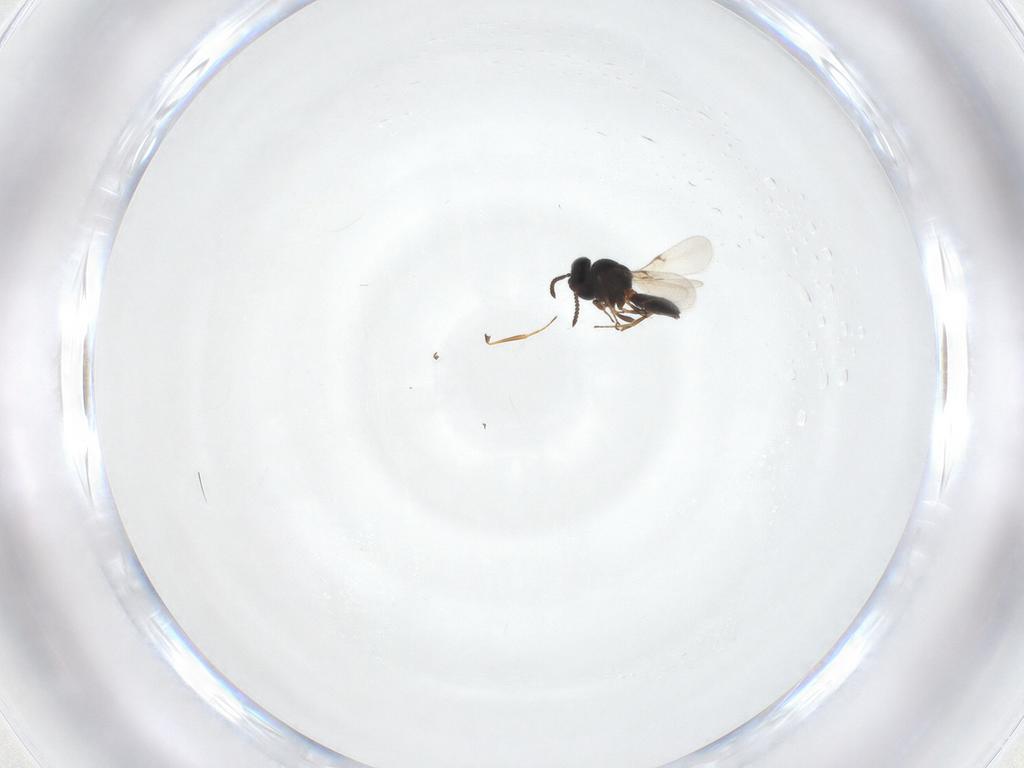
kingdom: Animalia
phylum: Arthropoda
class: Arachnida
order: Araneae
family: Pholcidae
